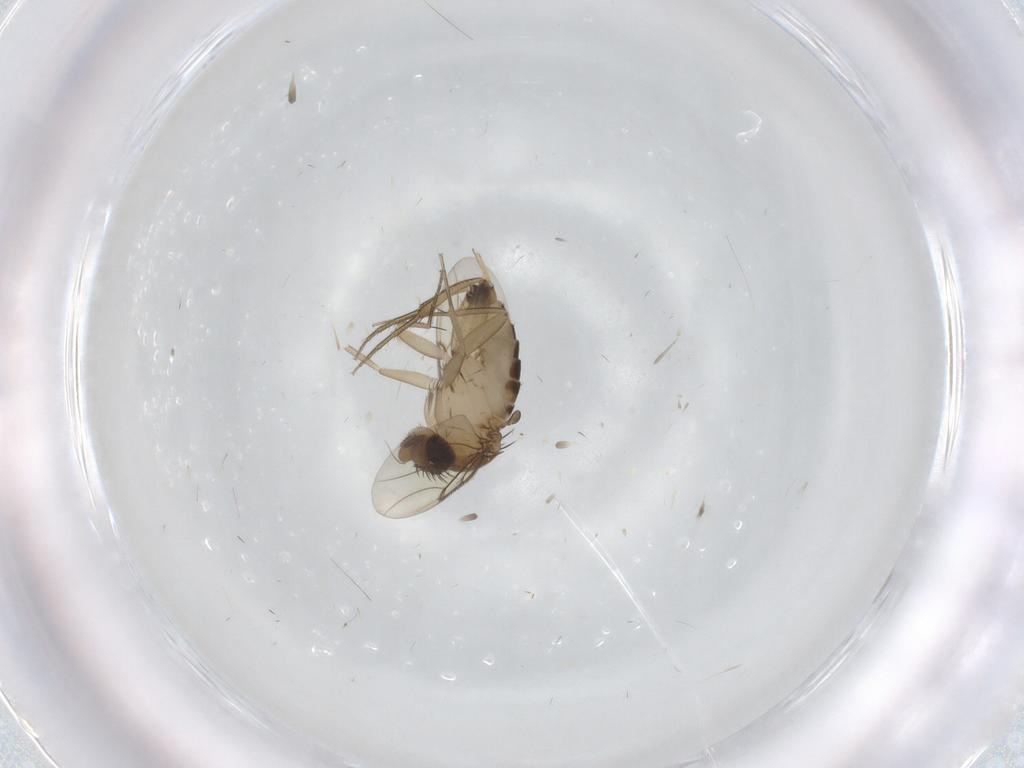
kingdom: Animalia
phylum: Arthropoda
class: Insecta
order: Diptera
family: Phoridae
